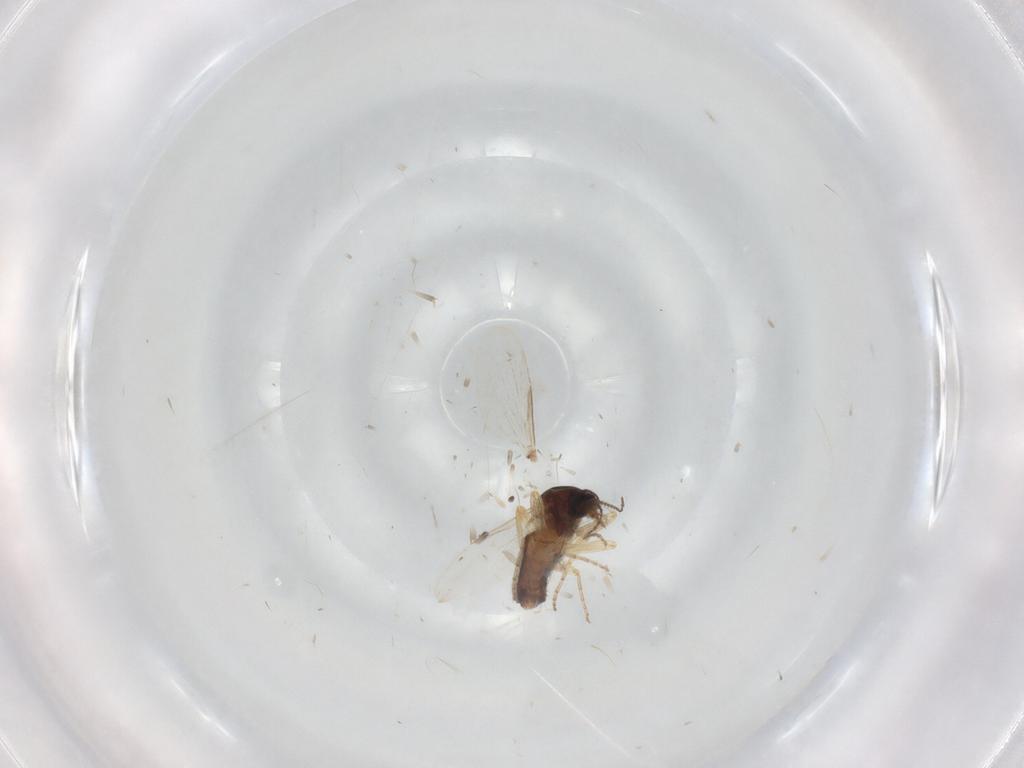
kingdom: Animalia
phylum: Arthropoda
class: Insecta
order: Diptera
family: Ceratopogonidae
